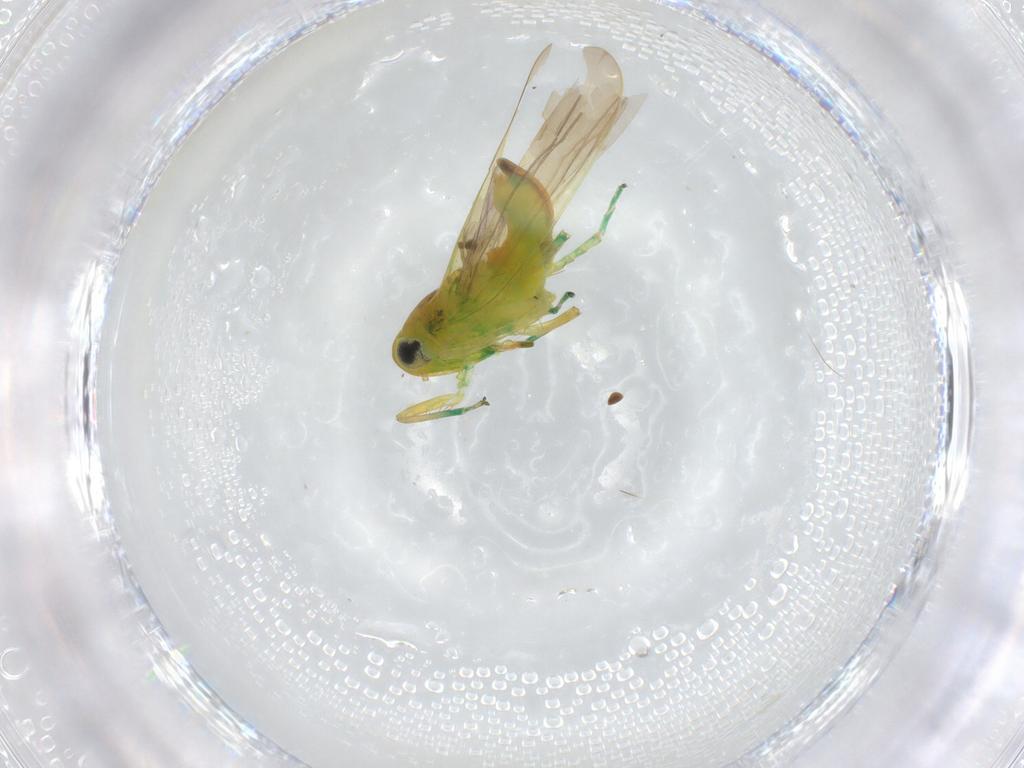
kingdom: Animalia
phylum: Arthropoda
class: Insecta
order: Hemiptera
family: Cicadellidae
